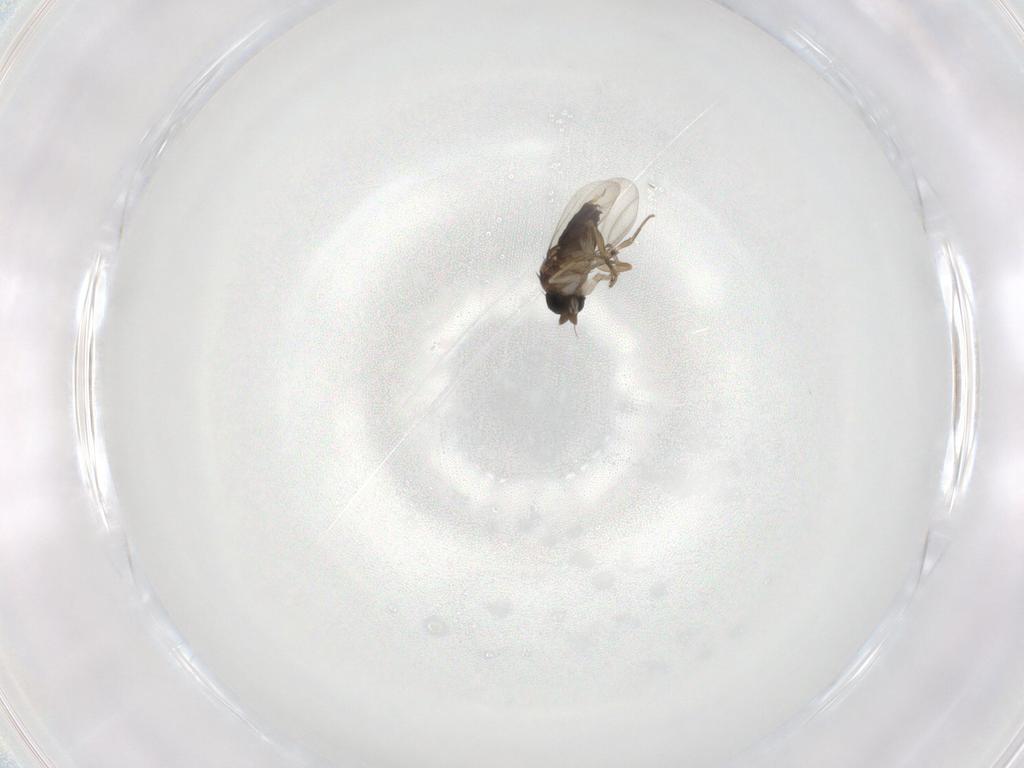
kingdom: Animalia
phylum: Arthropoda
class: Insecta
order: Diptera
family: Phoridae
